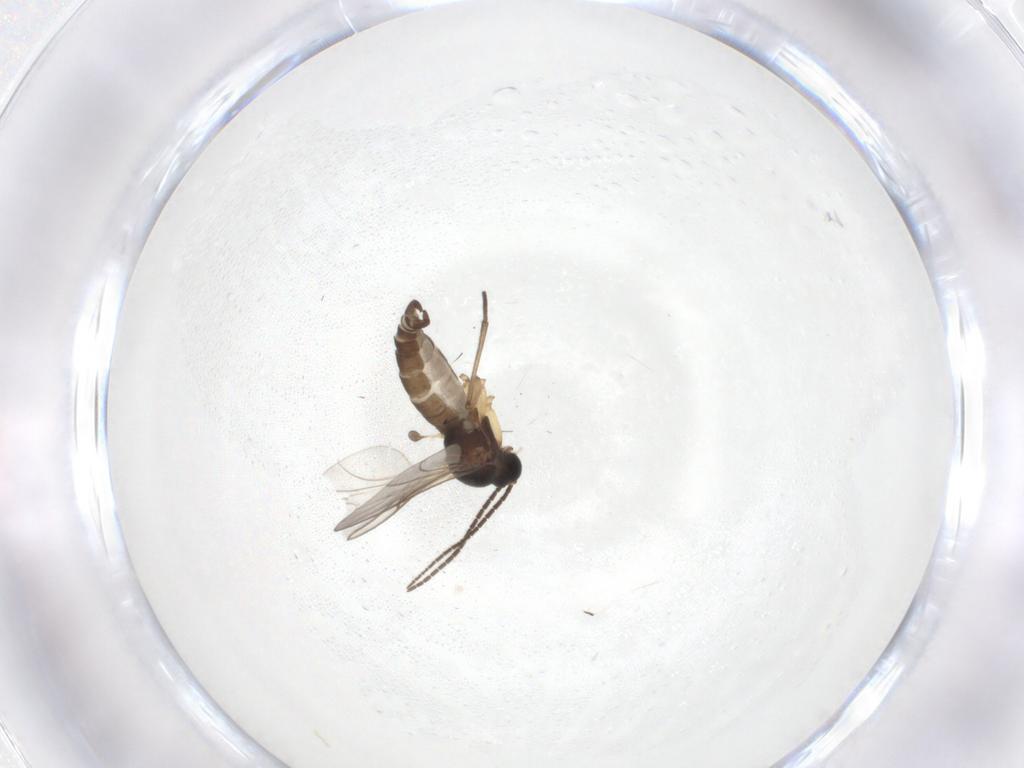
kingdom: Animalia
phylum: Arthropoda
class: Insecta
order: Diptera
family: Sciaridae
